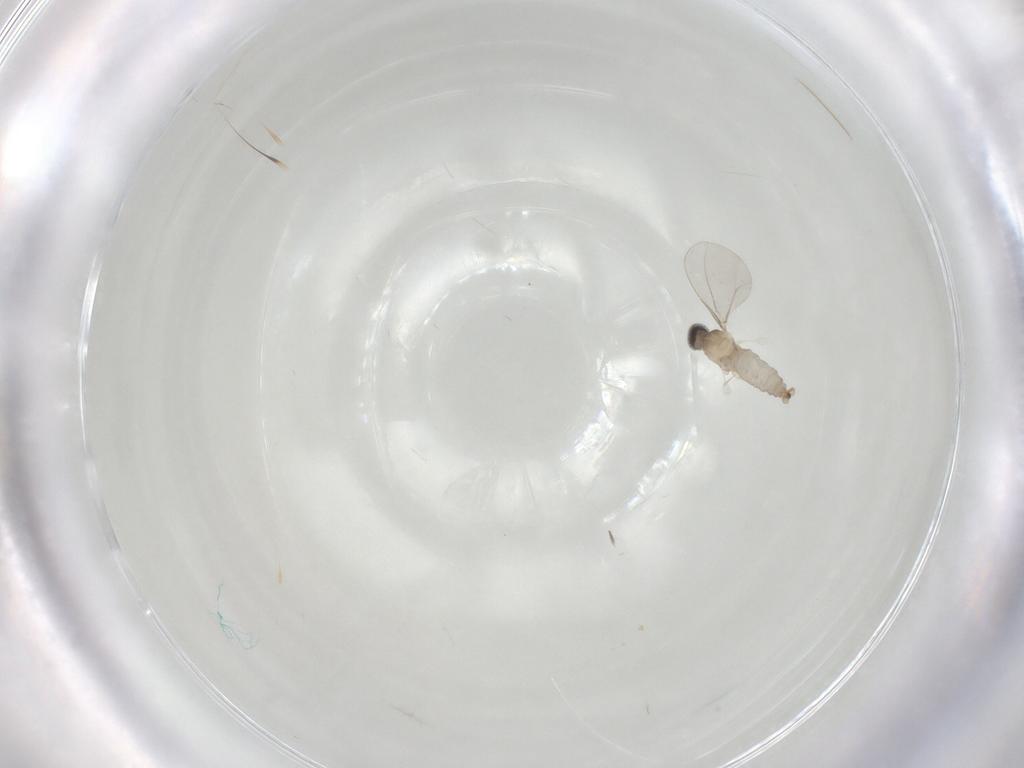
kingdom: Animalia
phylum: Arthropoda
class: Insecta
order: Diptera
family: Cecidomyiidae
